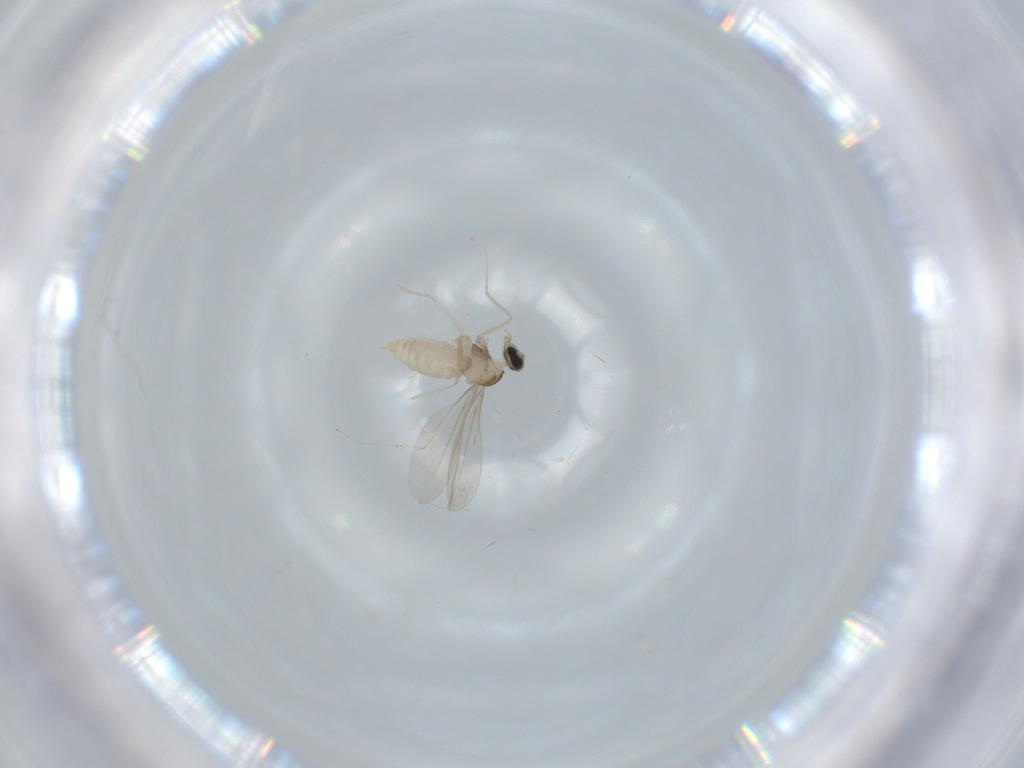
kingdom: Animalia
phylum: Arthropoda
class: Insecta
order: Diptera
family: Cecidomyiidae
